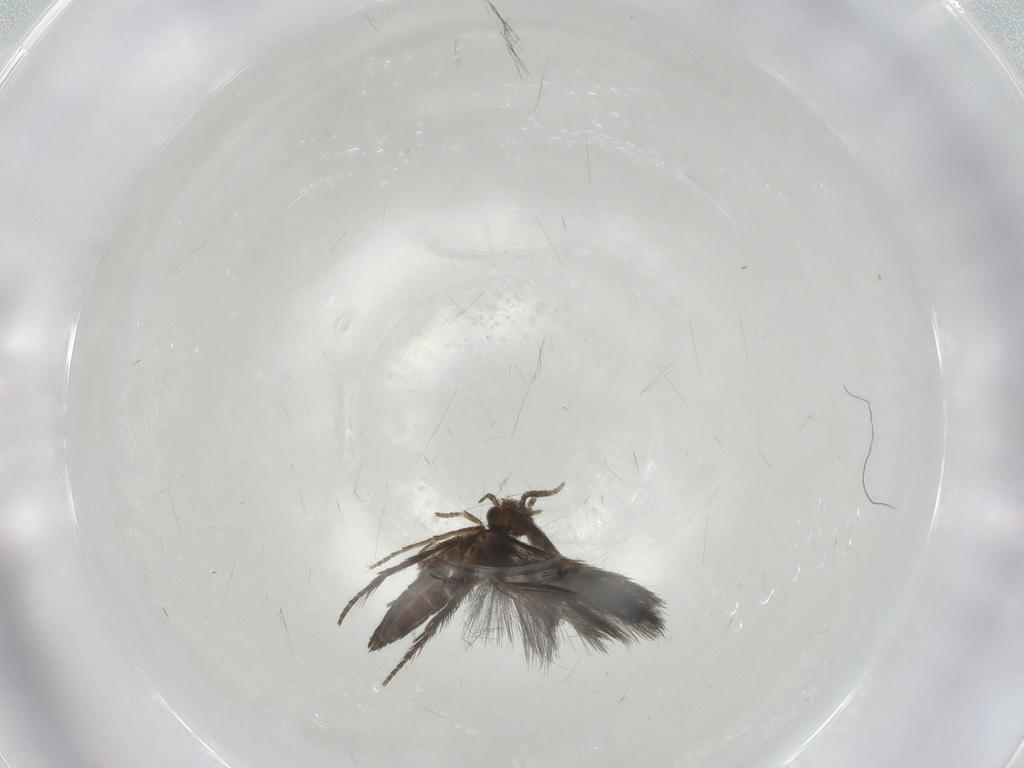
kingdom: Animalia
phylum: Arthropoda
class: Insecta
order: Trichoptera
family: Hydroptilidae
